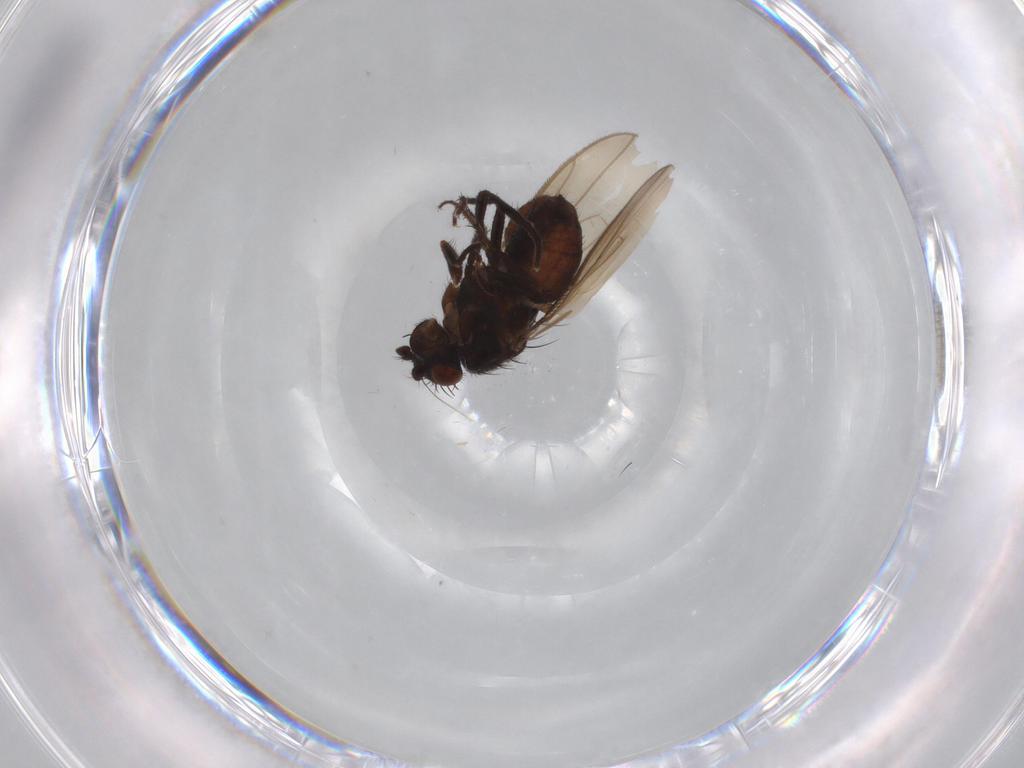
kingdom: Animalia
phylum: Arthropoda
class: Insecta
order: Diptera
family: Sphaeroceridae
